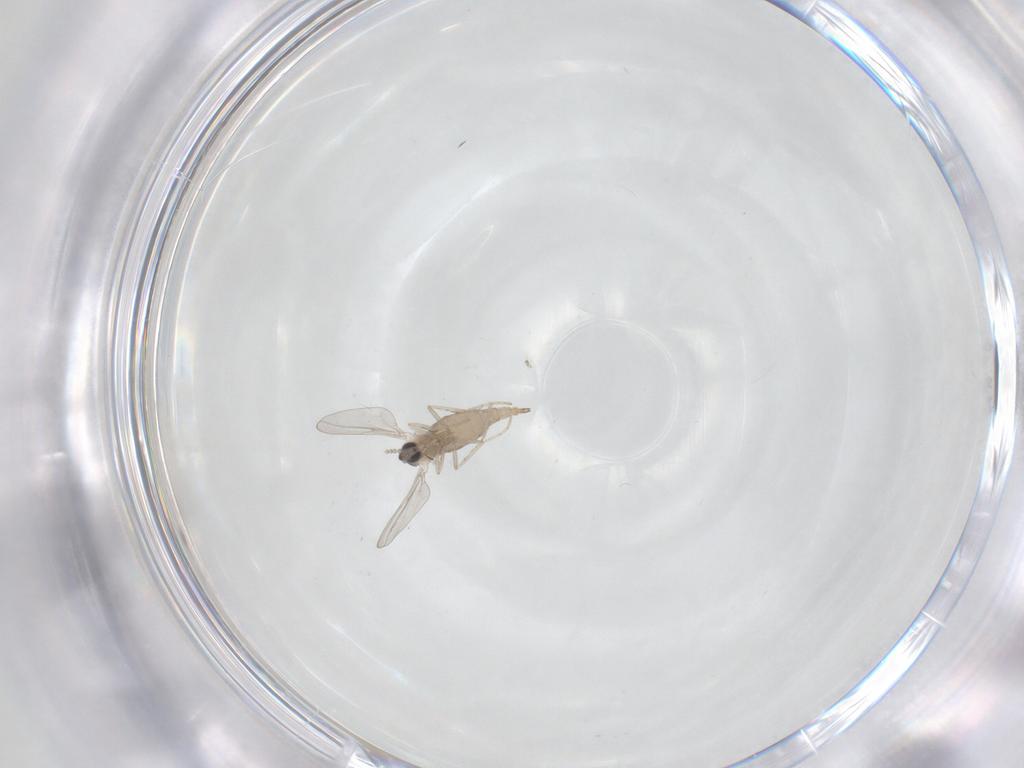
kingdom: Animalia
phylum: Arthropoda
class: Insecta
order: Diptera
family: Cecidomyiidae
